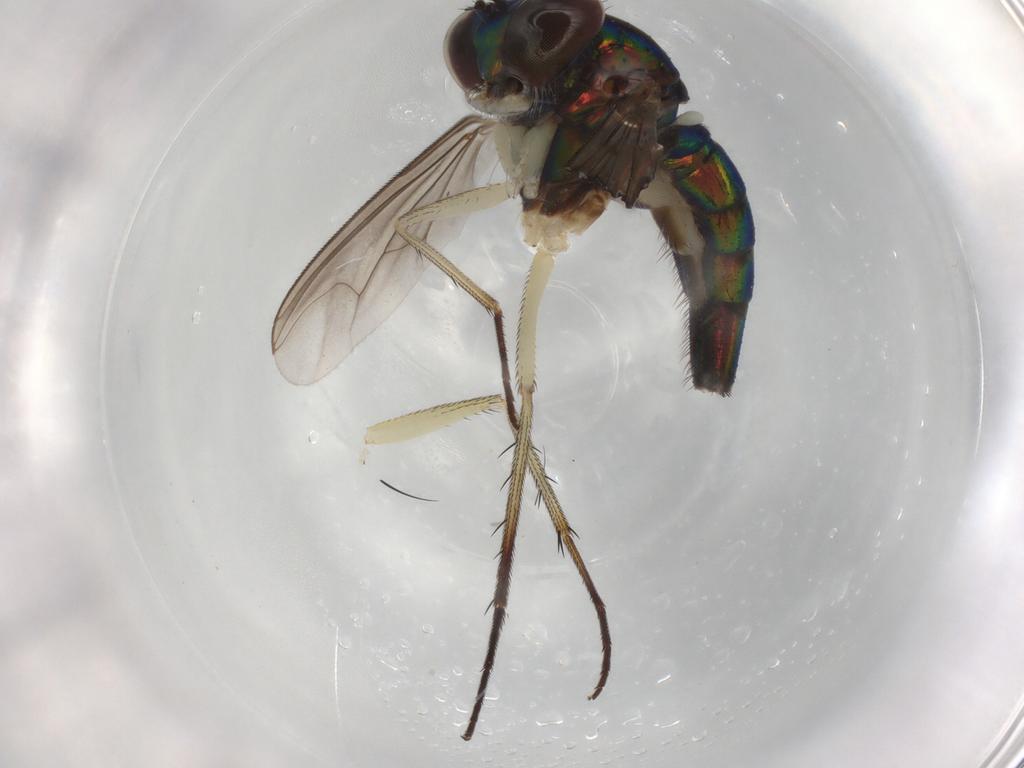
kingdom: Animalia
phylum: Arthropoda
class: Insecta
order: Diptera
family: Dolichopodidae
